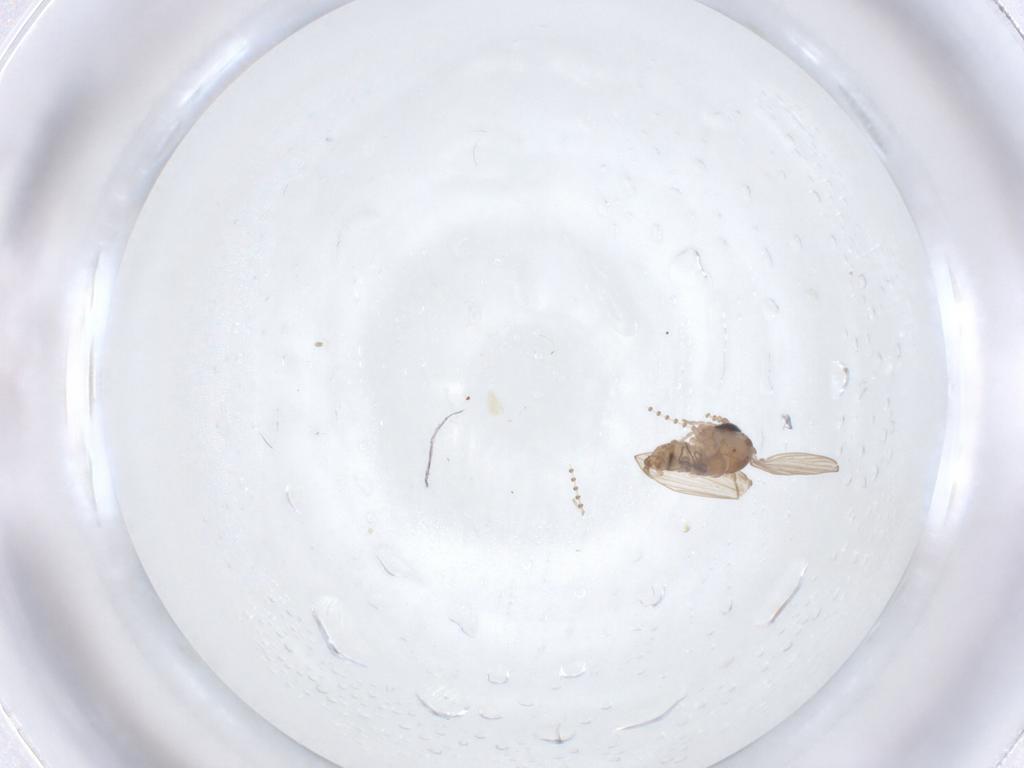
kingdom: Animalia
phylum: Arthropoda
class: Insecta
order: Diptera
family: Psychodidae
